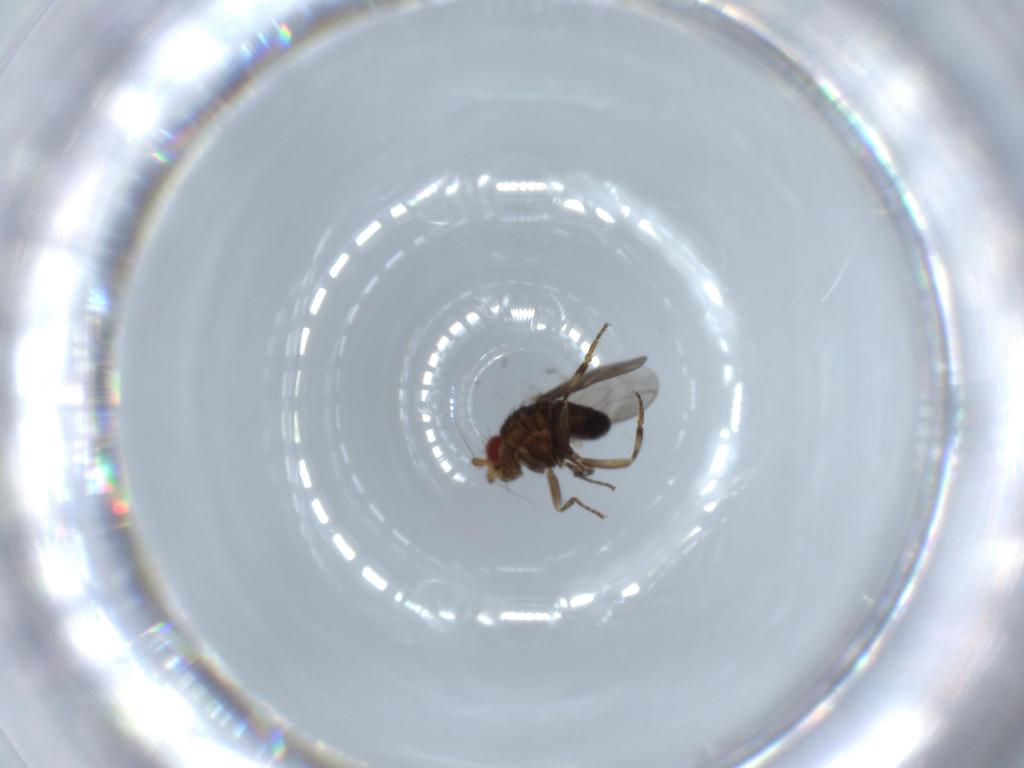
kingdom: Animalia
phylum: Arthropoda
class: Insecta
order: Diptera
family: Sphaeroceridae
